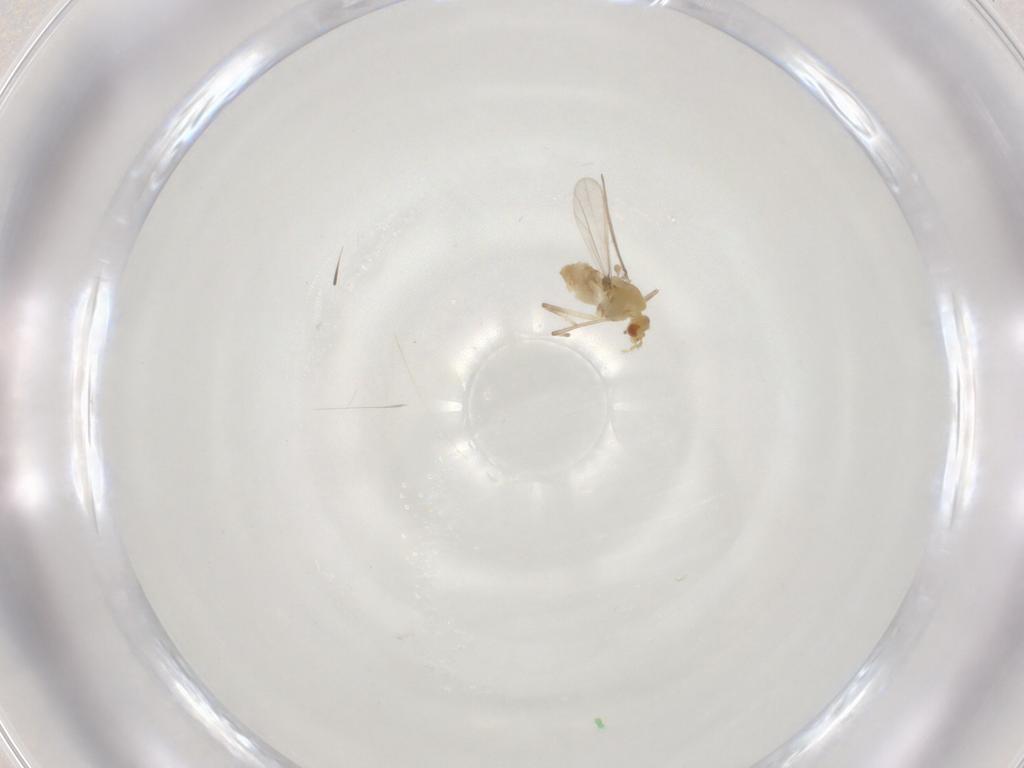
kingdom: Animalia
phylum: Arthropoda
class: Insecta
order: Diptera
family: Chironomidae
